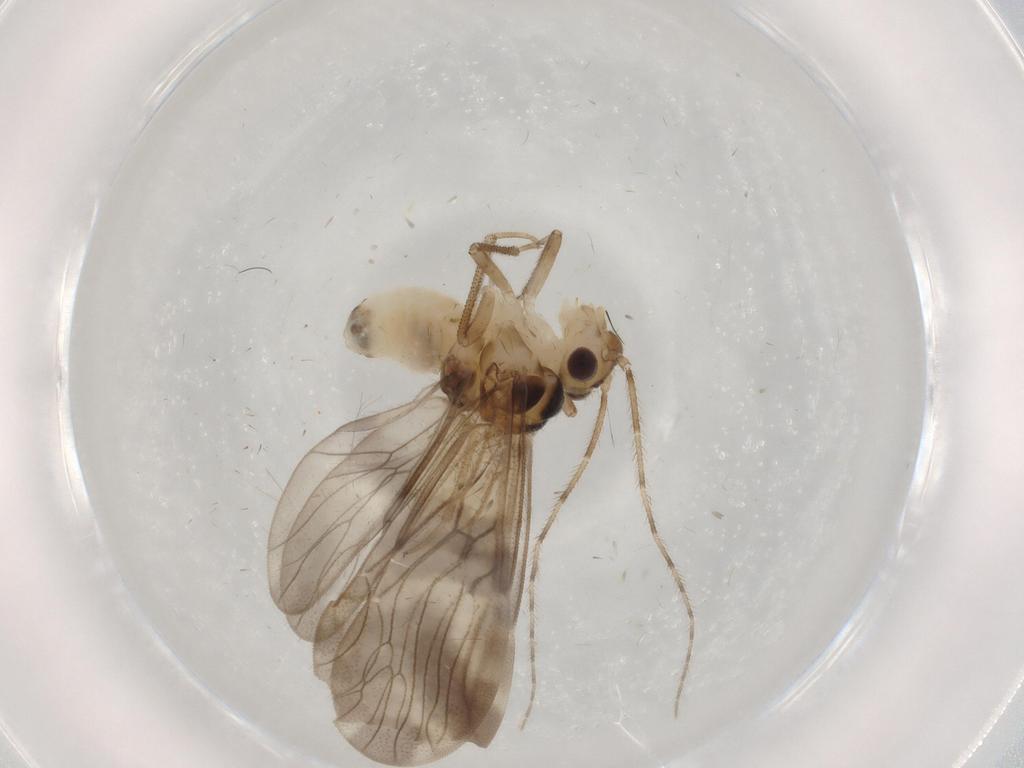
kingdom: Animalia
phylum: Arthropoda
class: Insecta
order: Psocodea
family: Amphipsocidae
